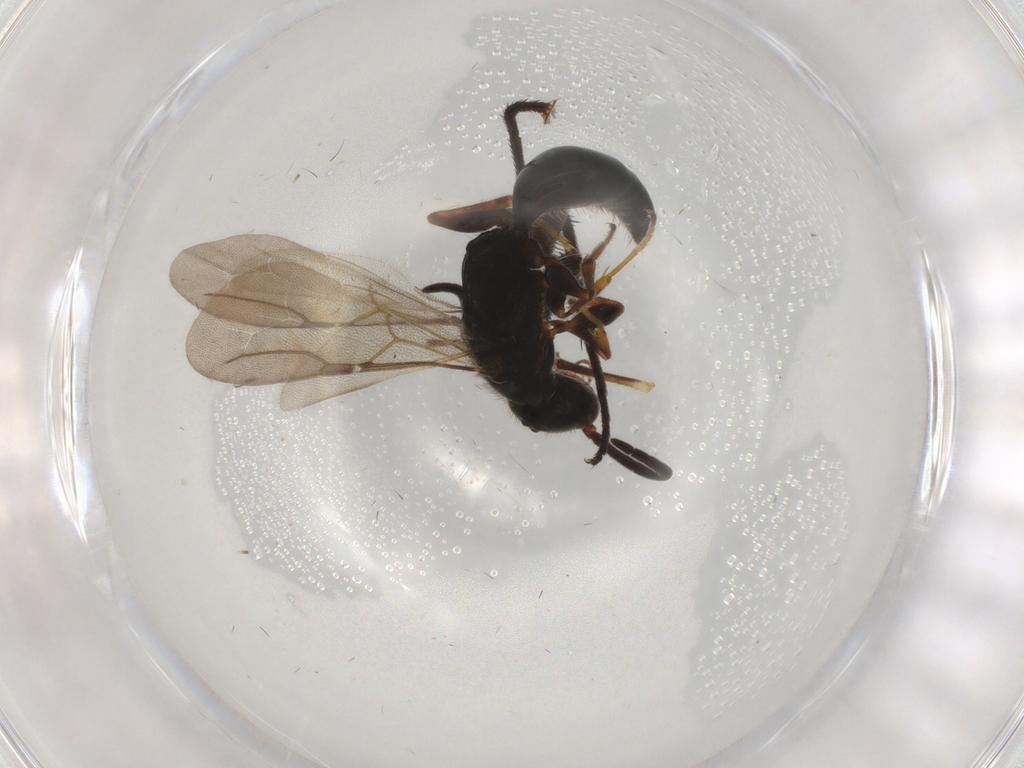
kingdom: Animalia
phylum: Arthropoda
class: Insecta
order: Hymenoptera
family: Bethylidae
